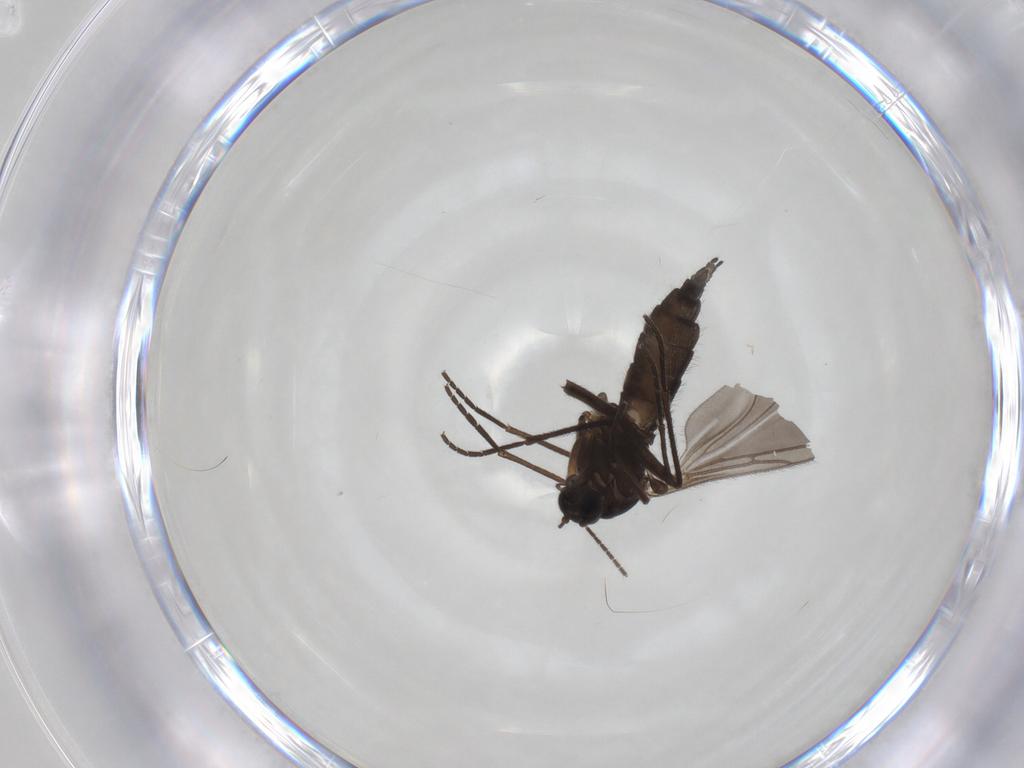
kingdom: Animalia
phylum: Arthropoda
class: Insecta
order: Diptera
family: Sciaridae
